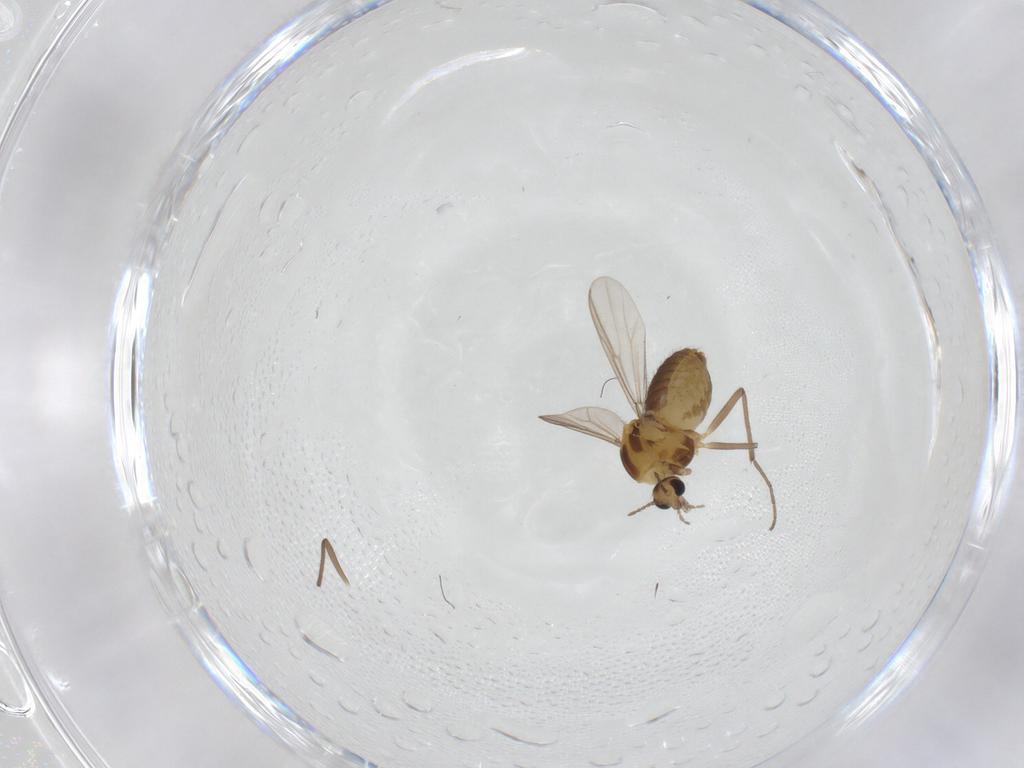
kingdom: Animalia
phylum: Arthropoda
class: Insecta
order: Diptera
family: Chironomidae
